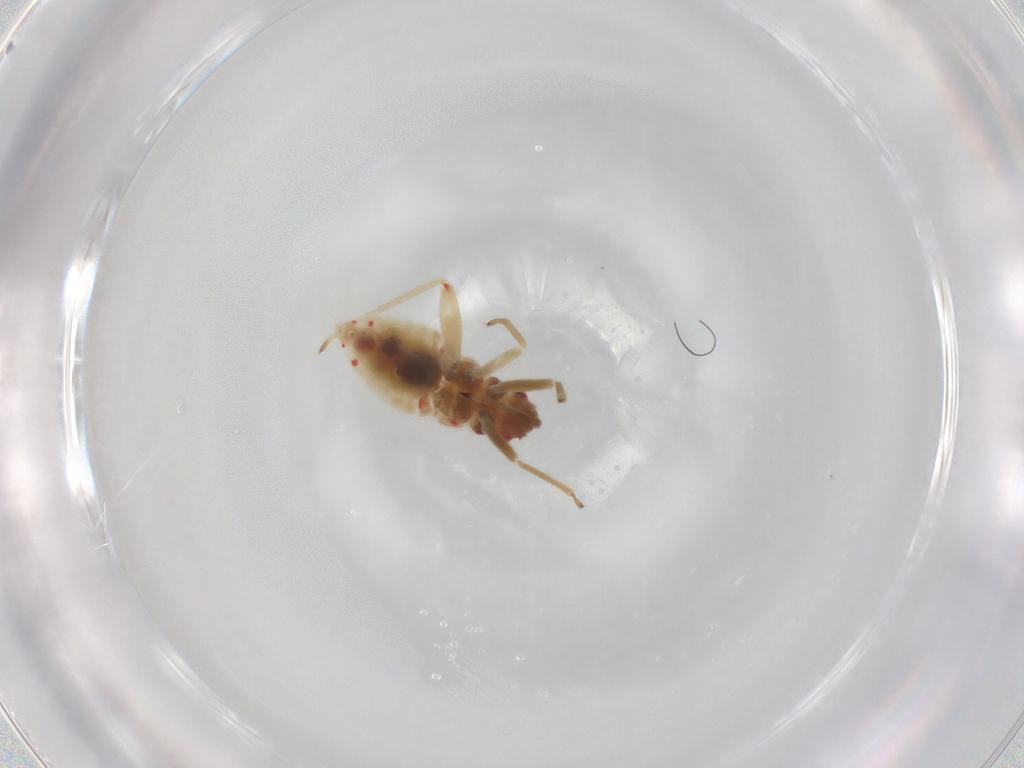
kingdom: Animalia
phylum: Arthropoda
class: Insecta
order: Hemiptera
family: Miridae
